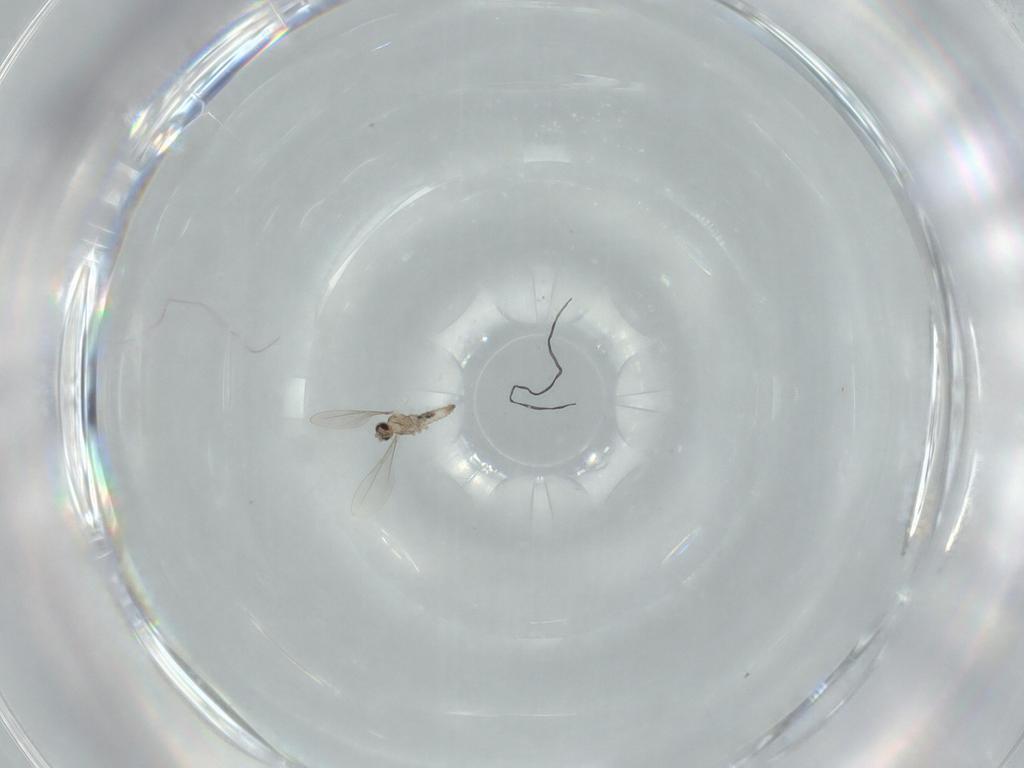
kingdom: Animalia
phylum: Arthropoda
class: Insecta
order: Diptera
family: Cecidomyiidae
